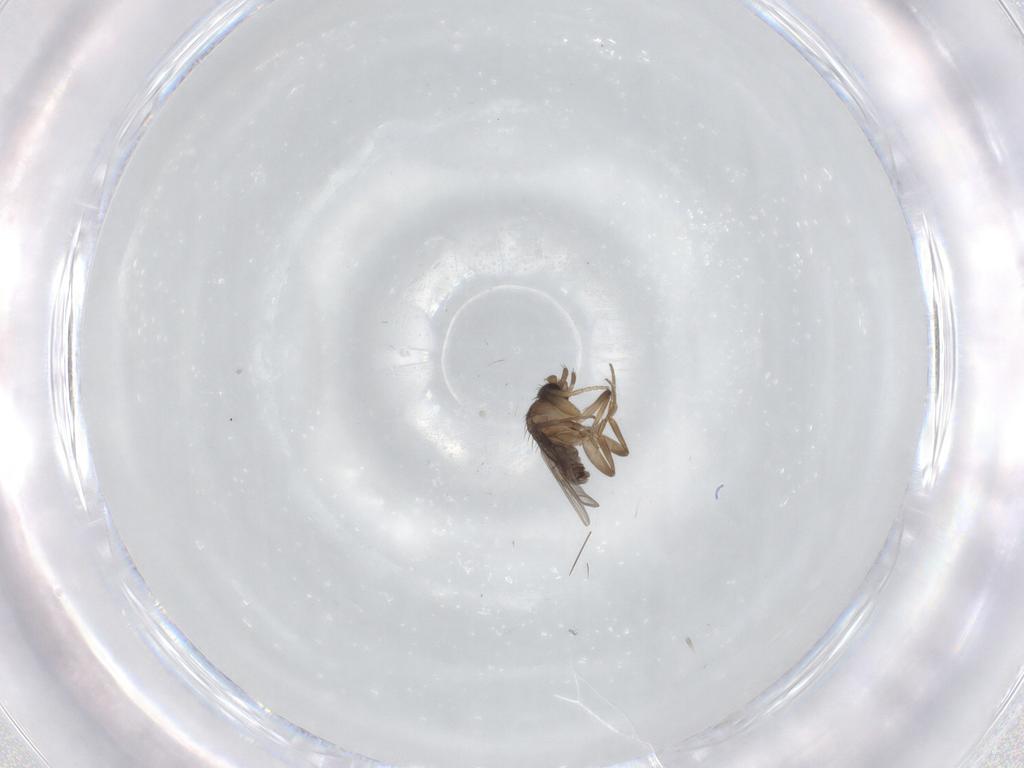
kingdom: Animalia
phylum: Arthropoda
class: Insecta
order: Diptera
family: Phoridae
